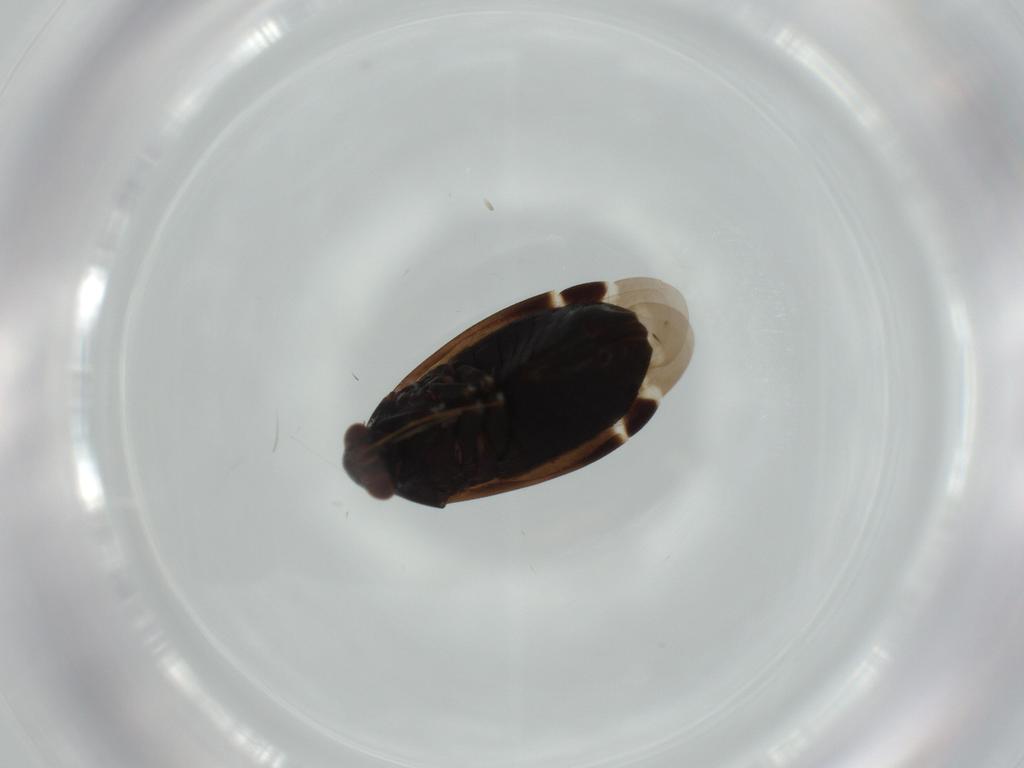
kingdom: Animalia
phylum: Arthropoda
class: Insecta
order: Hemiptera
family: Aphrophoridae
